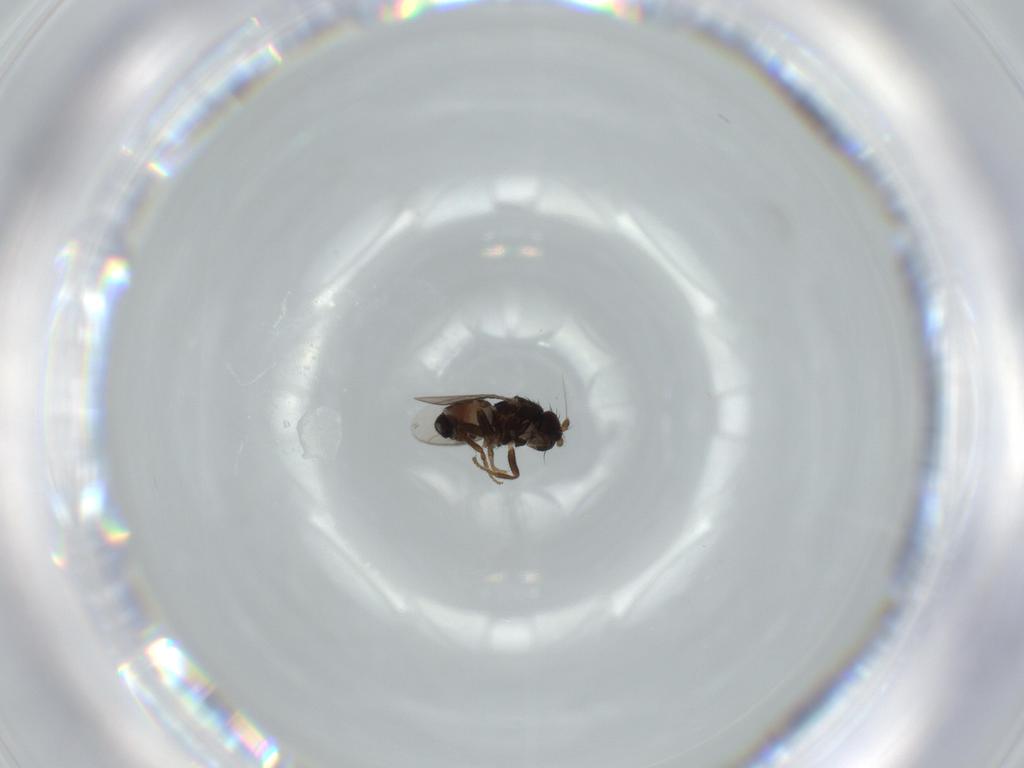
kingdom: Animalia
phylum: Arthropoda
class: Insecta
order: Diptera
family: Sphaeroceridae
